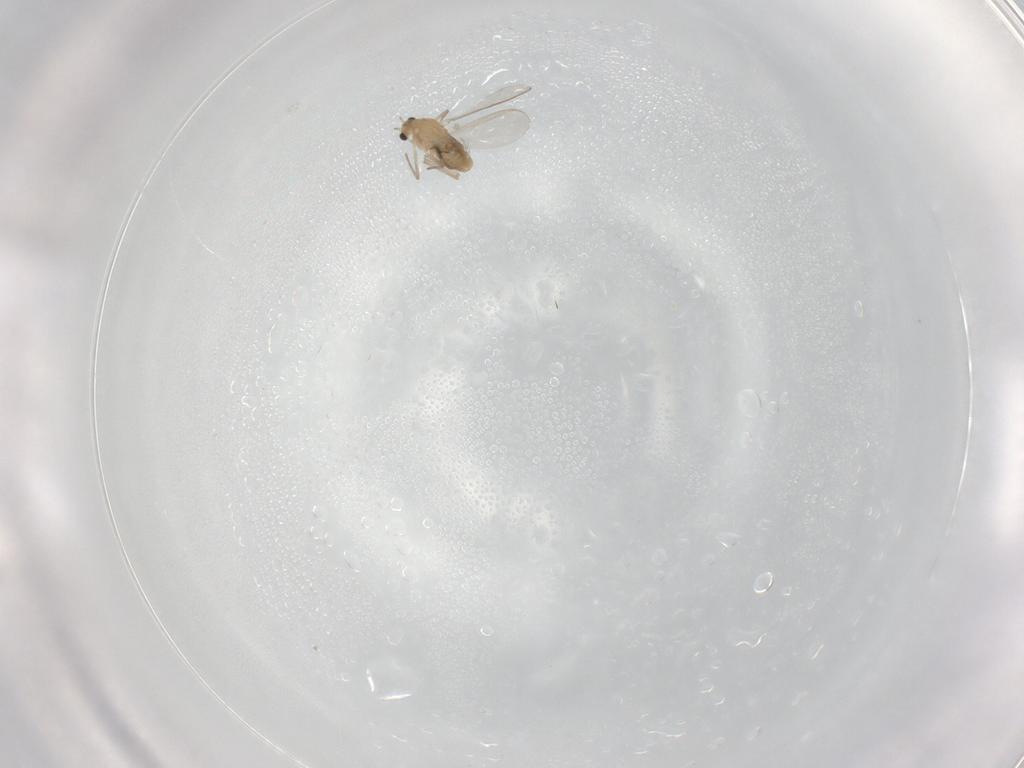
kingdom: Animalia
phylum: Arthropoda
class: Insecta
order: Diptera
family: Chironomidae
